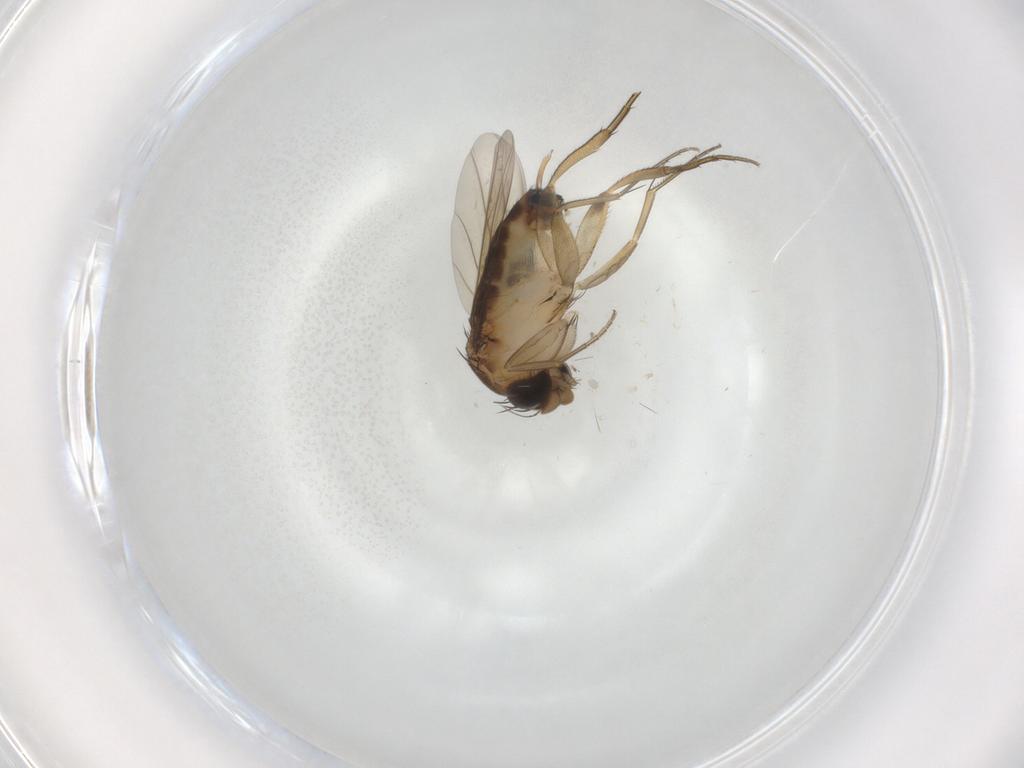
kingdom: Animalia
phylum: Arthropoda
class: Insecta
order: Diptera
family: Phoridae
